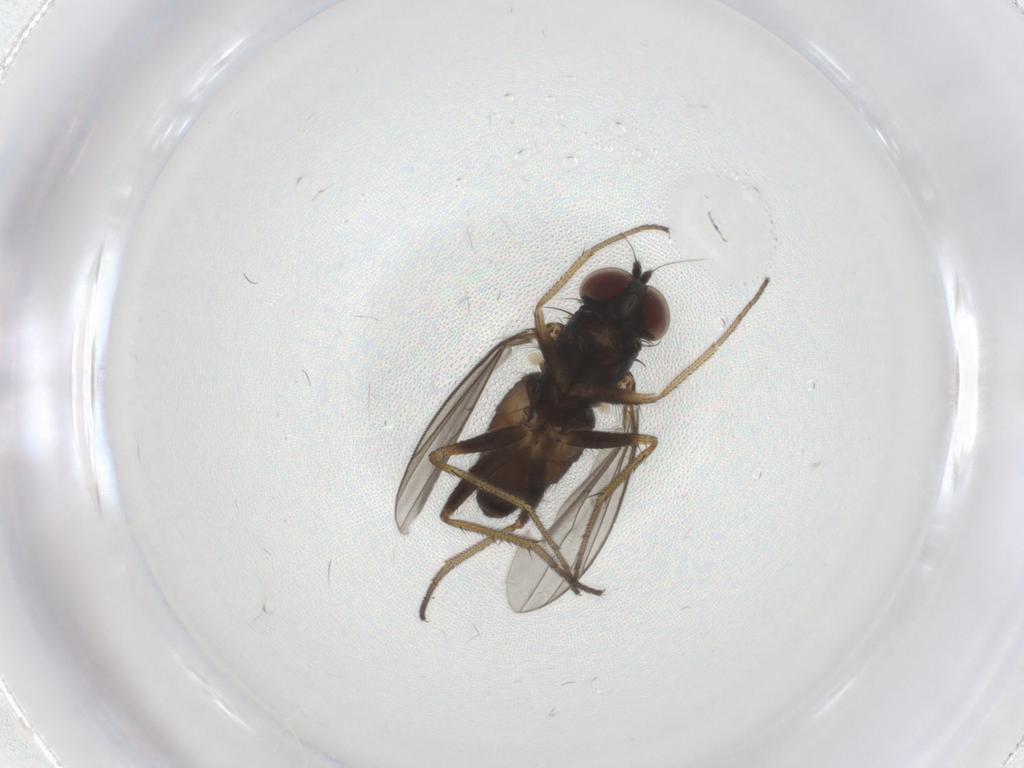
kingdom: Animalia
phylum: Arthropoda
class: Insecta
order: Diptera
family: Cecidomyiidae
